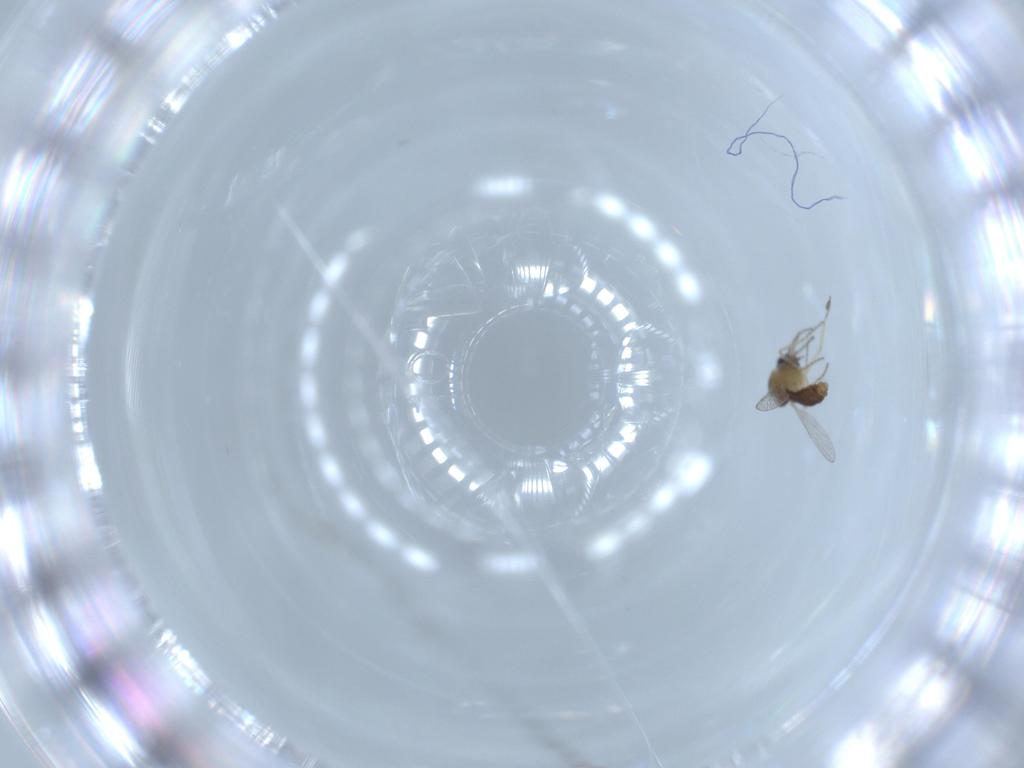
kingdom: Animalia
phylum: Arthropoda
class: Insecta
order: Diptera
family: Ceratopogonidae
